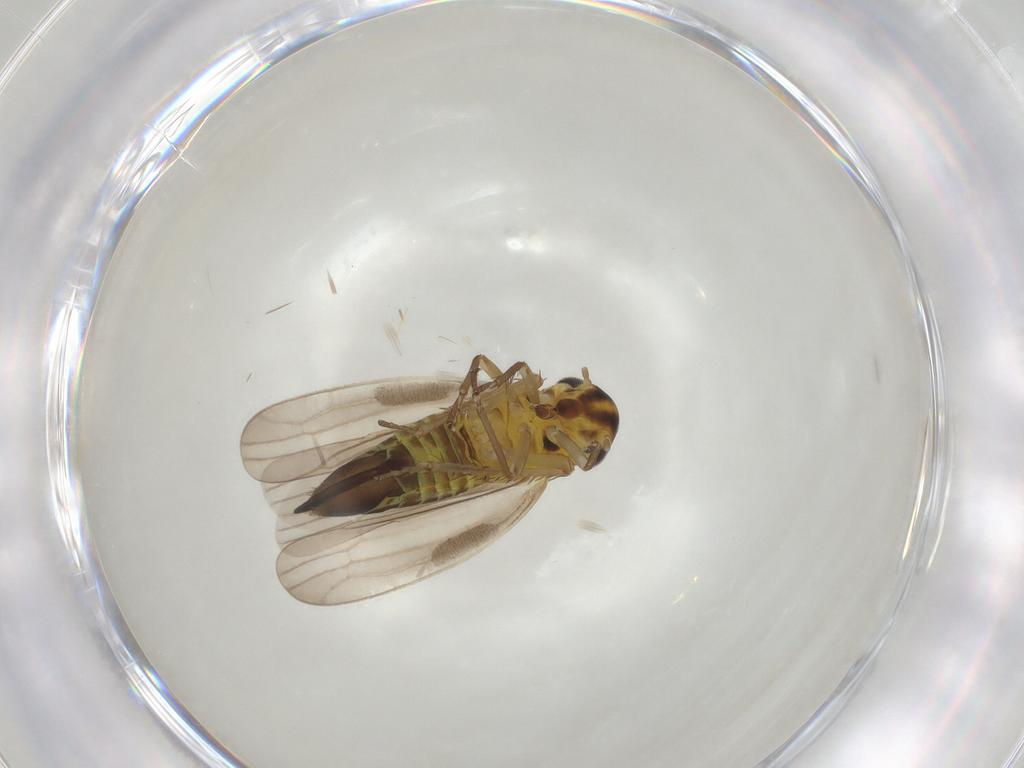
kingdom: Animalia
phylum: Arthropoda
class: Insecta
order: Hemiptera
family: Cicadellidae
